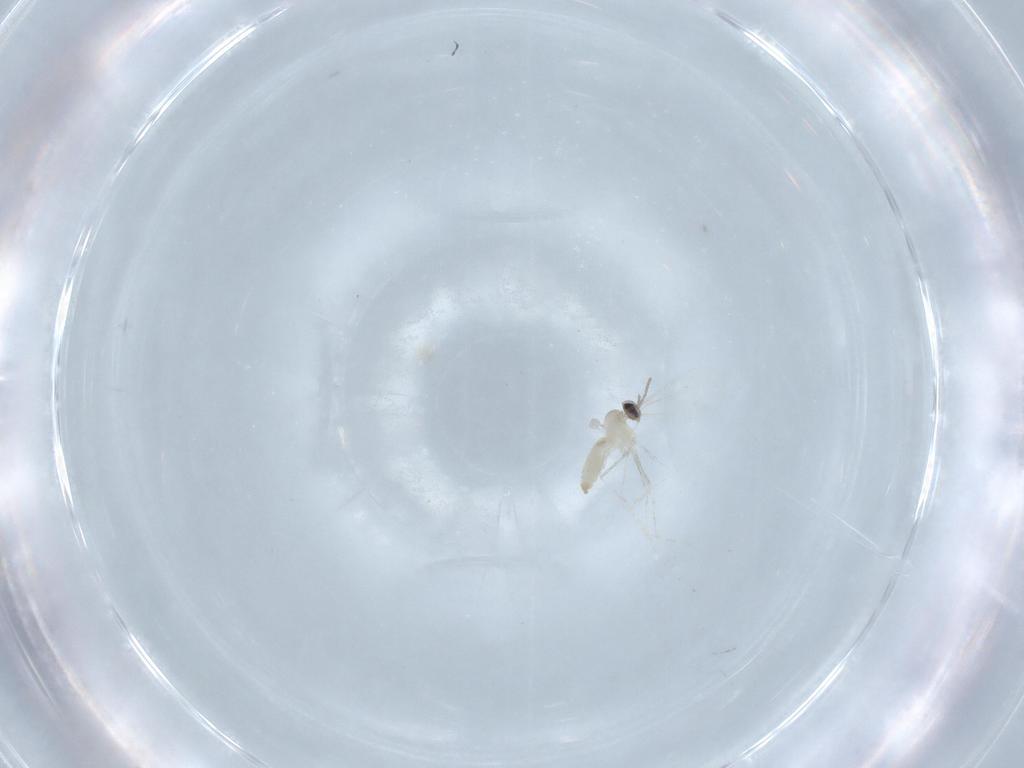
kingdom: Animalia
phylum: Arthropoda
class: Insecta
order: Diptera
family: Cecidomyiidae
